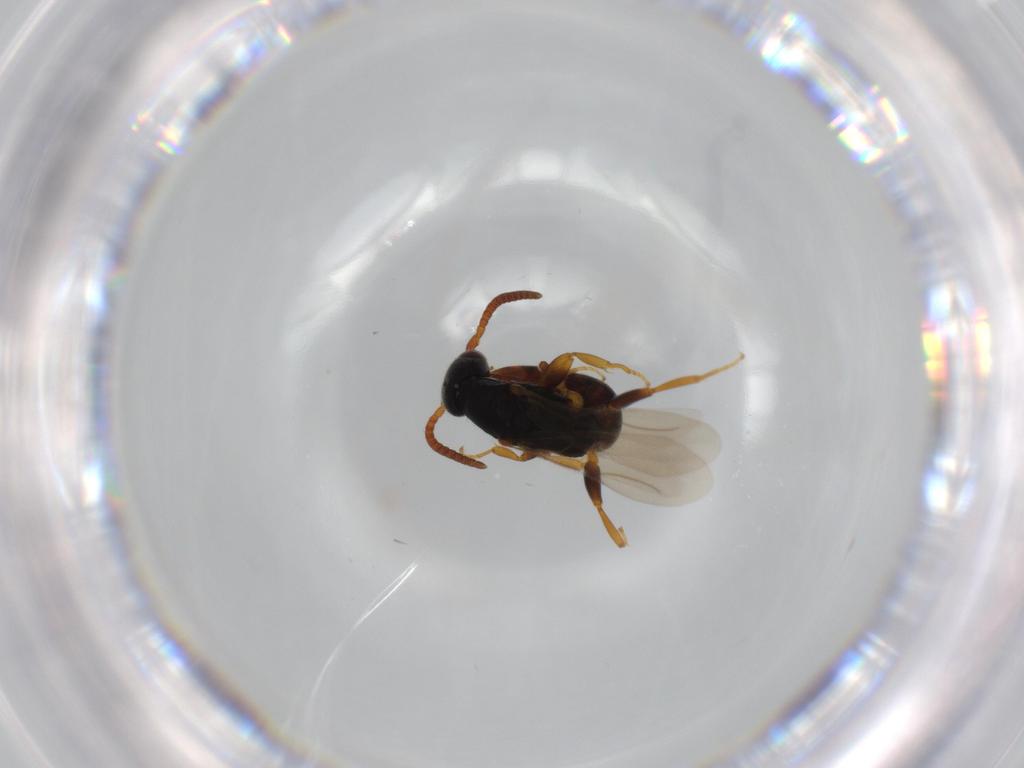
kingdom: Animalia
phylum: Arthropoda
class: Insecta
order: Hymenoptera
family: Bethylidae
